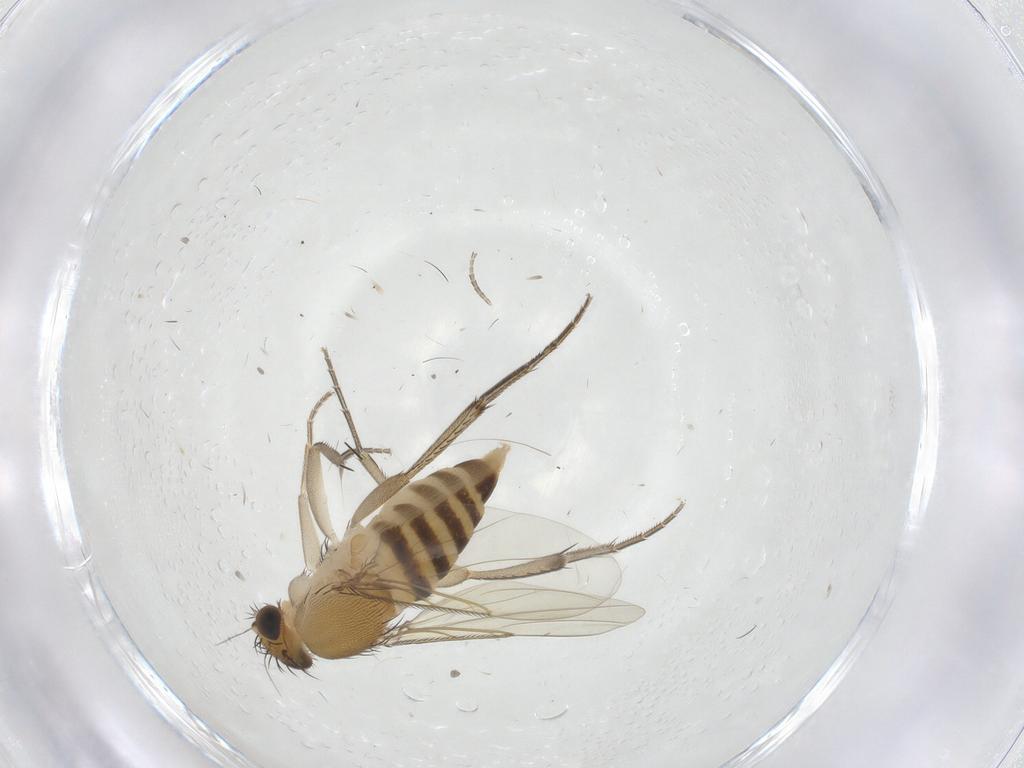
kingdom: Animalia
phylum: Arthropoda
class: Insecta
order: Diptera
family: Phoridae
